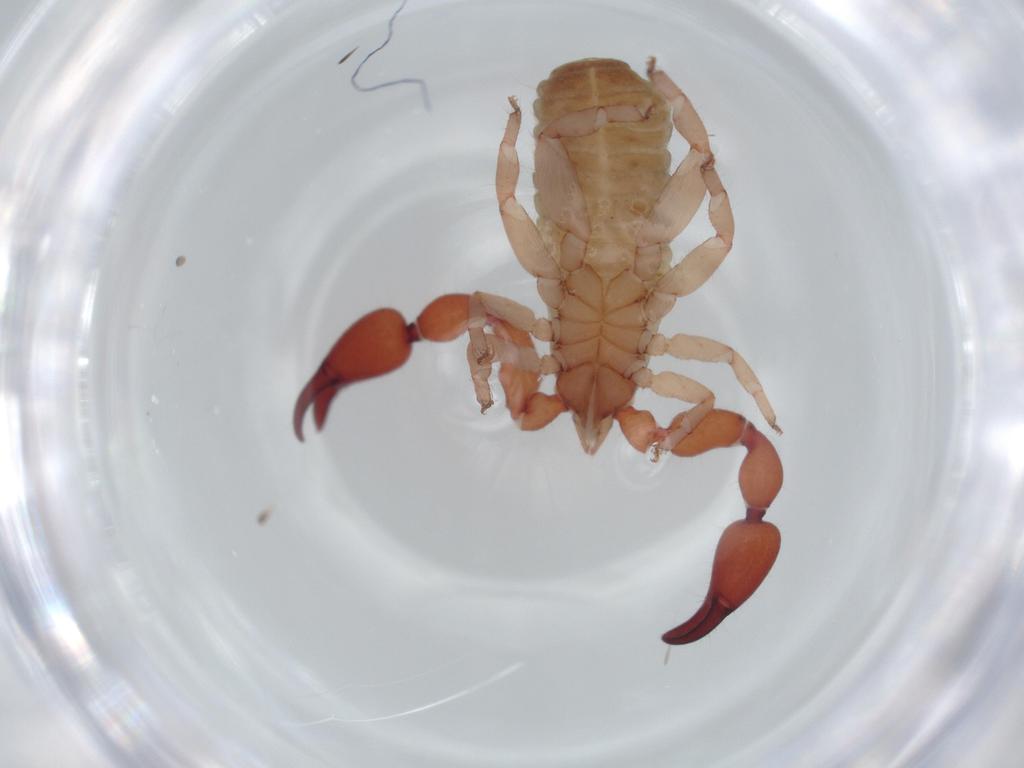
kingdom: Animalia
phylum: Arthropoda
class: Arachnida
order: Pseudoscorpiones
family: Atemnidae
